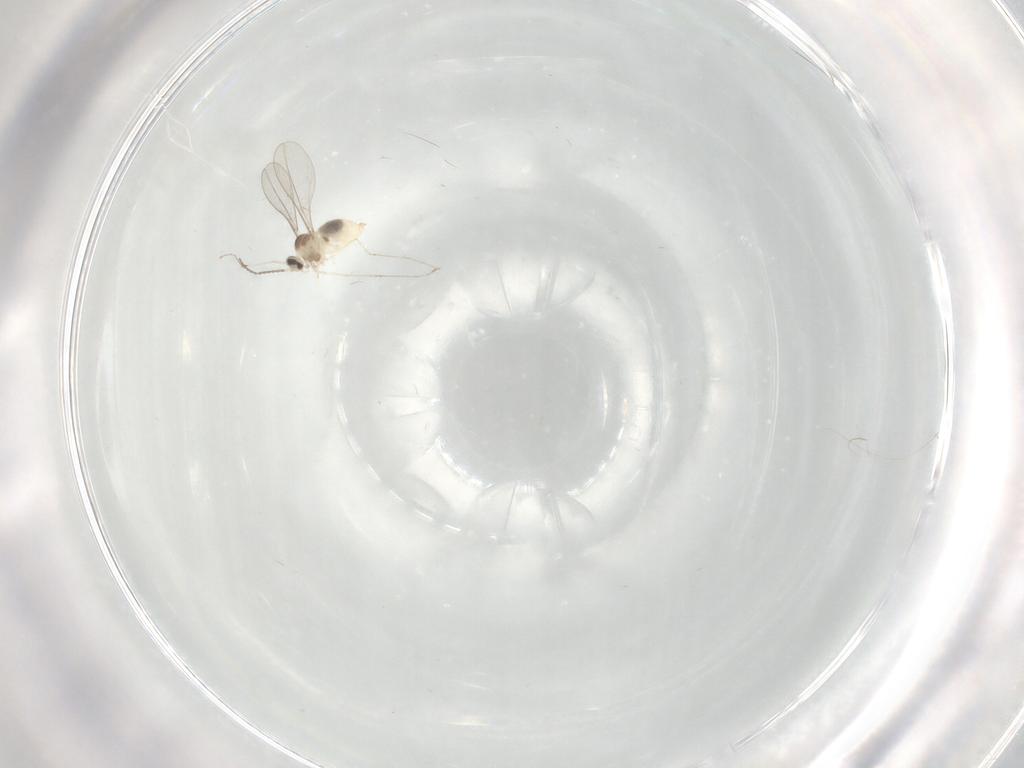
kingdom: Animalia
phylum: Arthropoda
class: Insecta
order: Diptera
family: Cecidomyiidae
